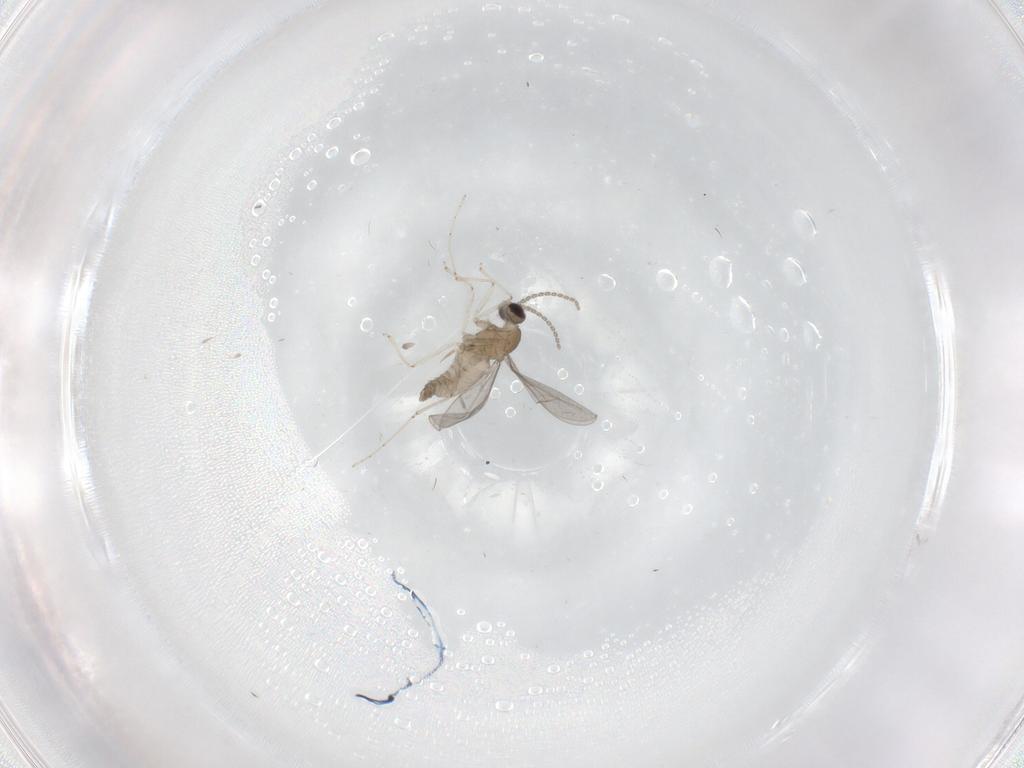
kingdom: Animalia
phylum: Arthropoda
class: Insecta
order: Diptera
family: Cecidomyiidae
